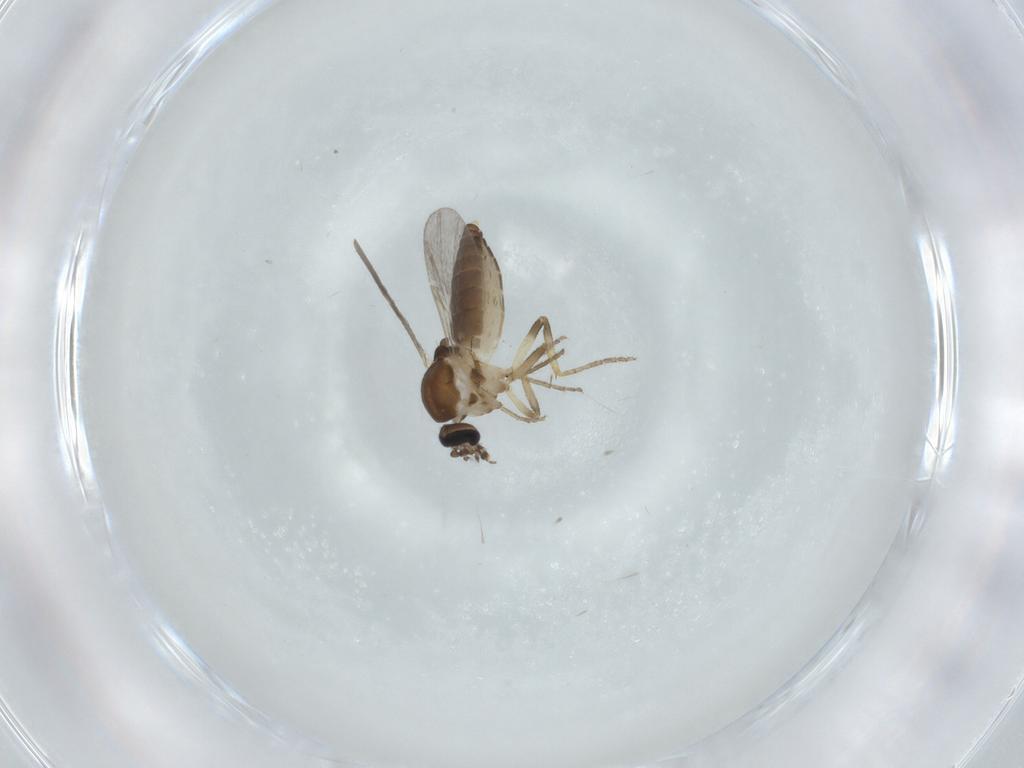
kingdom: Animalia
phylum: Arthropoda
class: Insecta
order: Diptera
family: Ceratopogonidae
